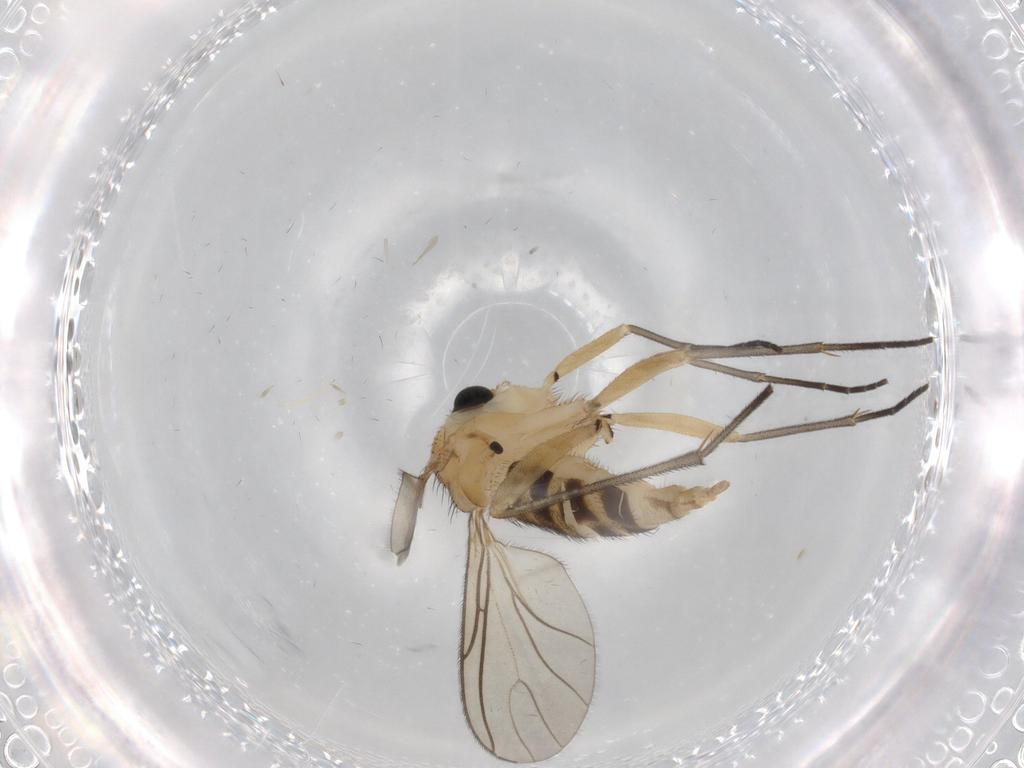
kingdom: Animalia
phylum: Arthropoda
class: Insecta
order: Diptera
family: Sciaridae
